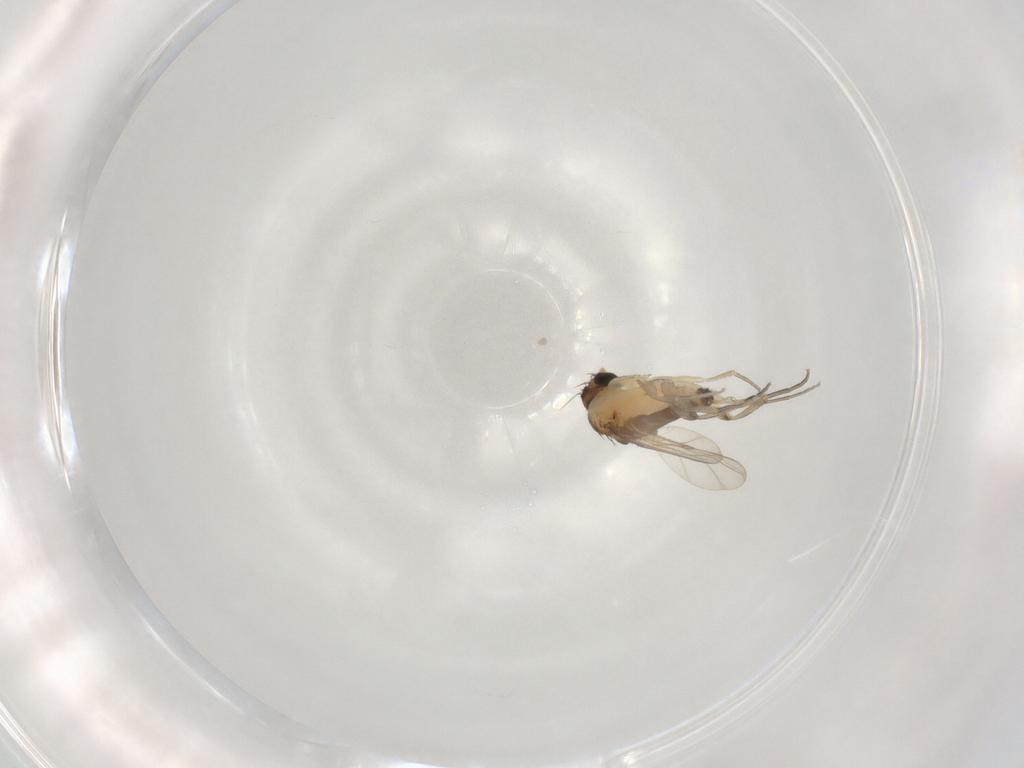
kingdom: Animalia
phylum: Arthropoda
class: Insecta
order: Diptera
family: Phoridae
